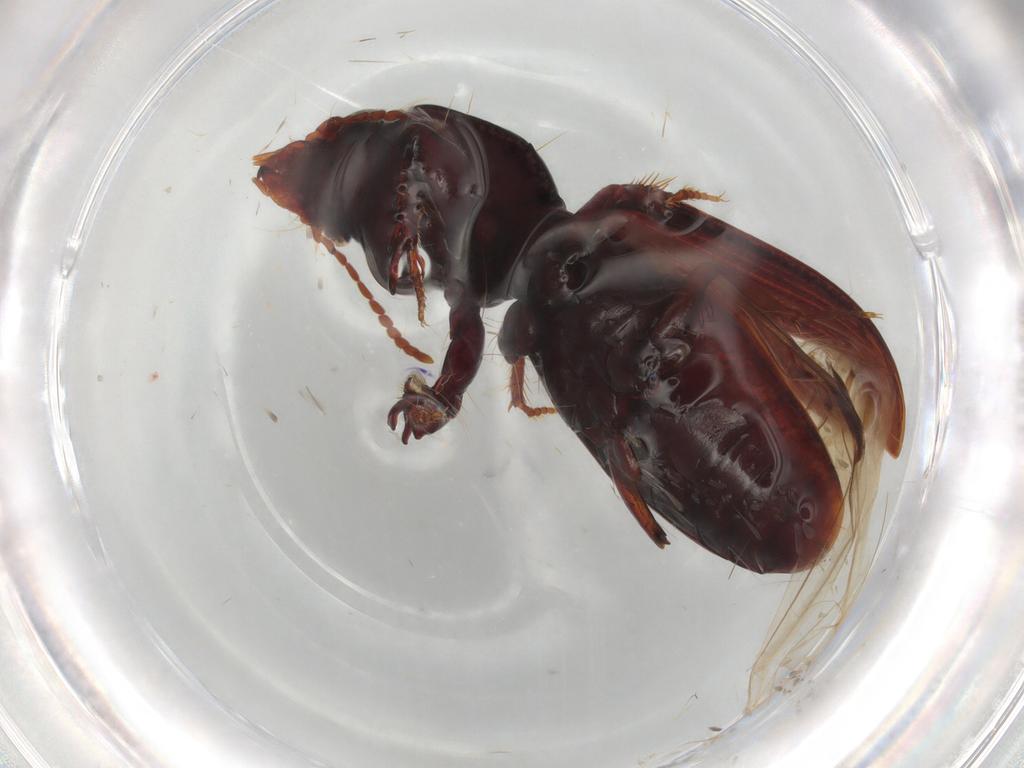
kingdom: Animalia
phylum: Arthropoda
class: Insecta
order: Coleoptera
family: Carabidae
